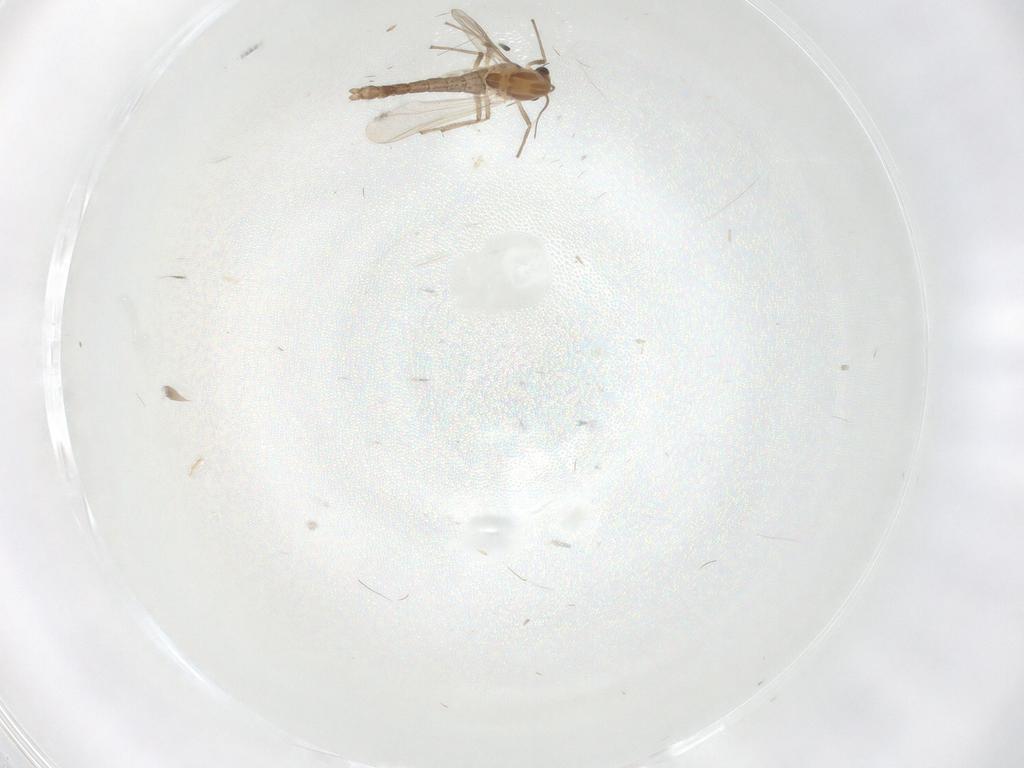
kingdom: Animalia
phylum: Arthropoda
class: Insecta
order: Diptera
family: Chironomidae
